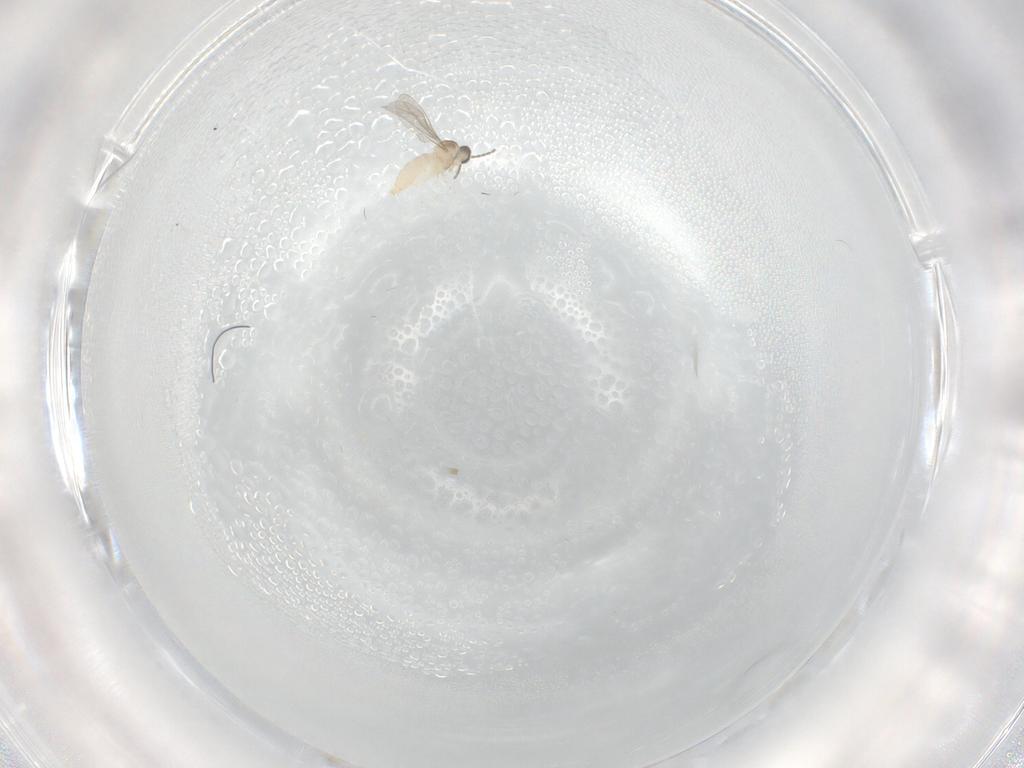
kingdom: Animalia
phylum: Arthropoda
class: Insecta
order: Diptera
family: Cecidomyiidae
